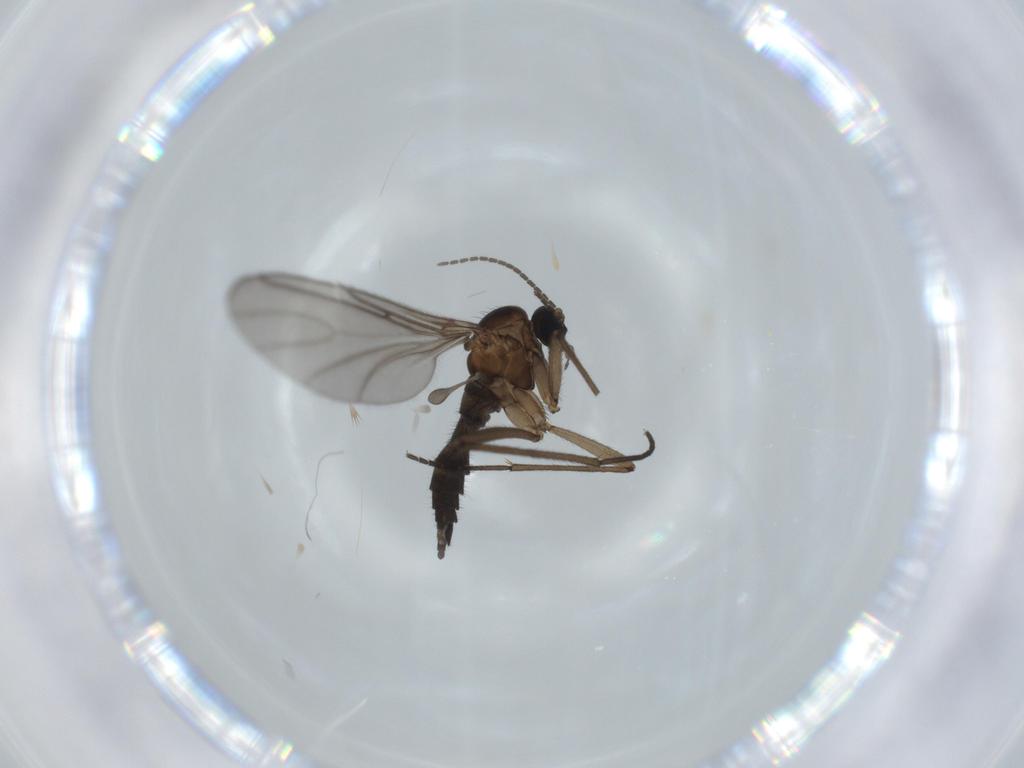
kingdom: Animalia
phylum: Arthropoda
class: Insecta
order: Diptera
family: Sciaridae
